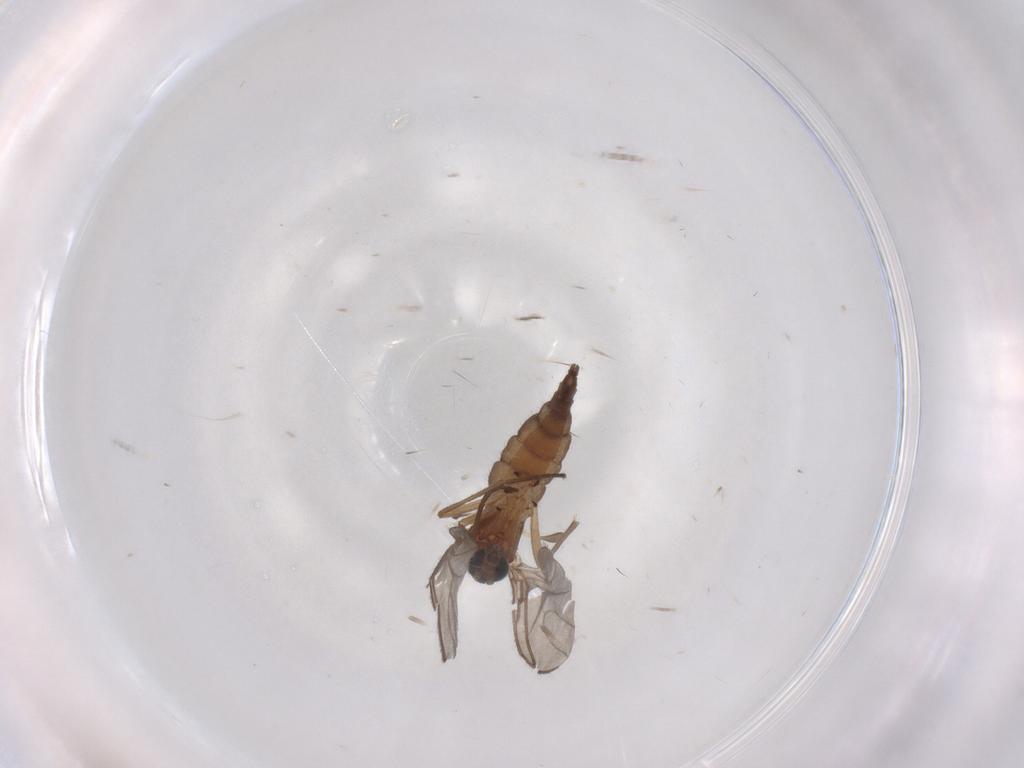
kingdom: Animalia
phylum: Arthropoda
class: Insecta
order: Diptera
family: Sciaridae
